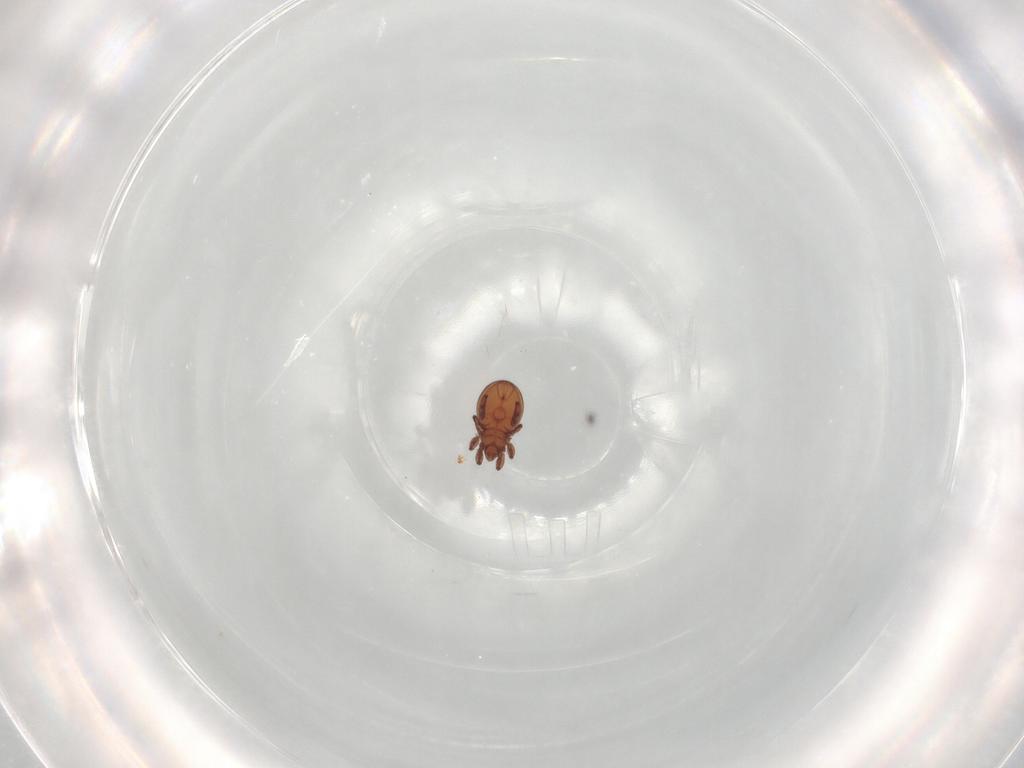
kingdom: Animalia
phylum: Arthropoda
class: Arachnida
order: Sarcoptiformes
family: Eremaeidae
